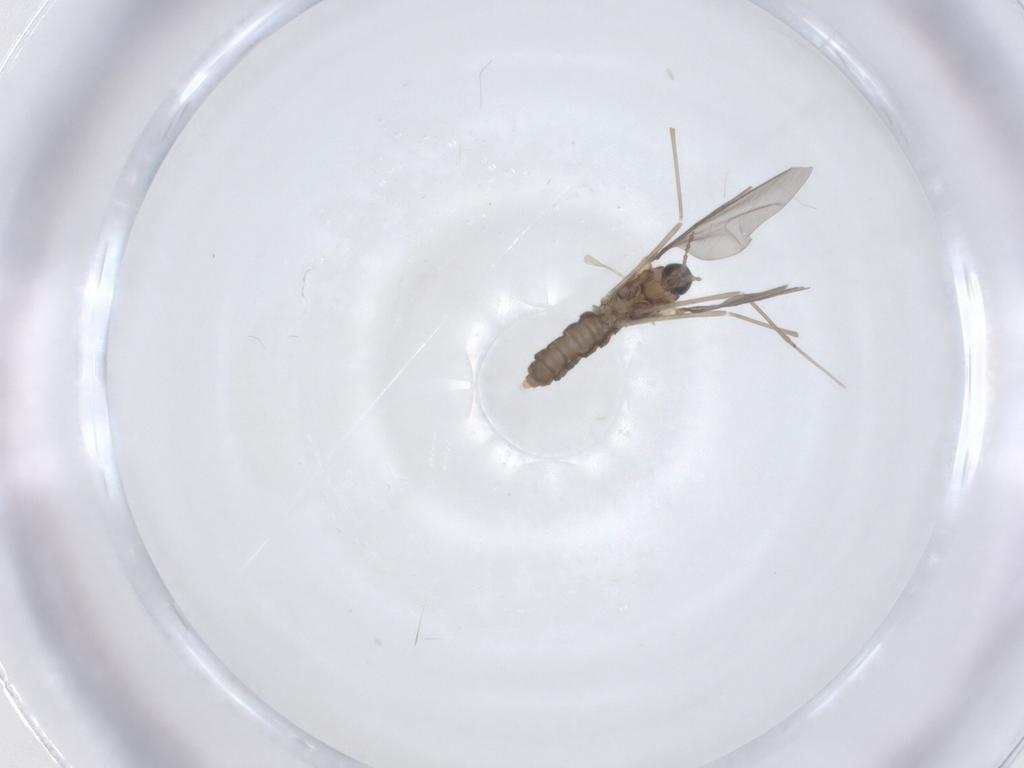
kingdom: Animalia
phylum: Arthropoda
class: Insecta
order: Diptera
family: Cecidomyiidae
